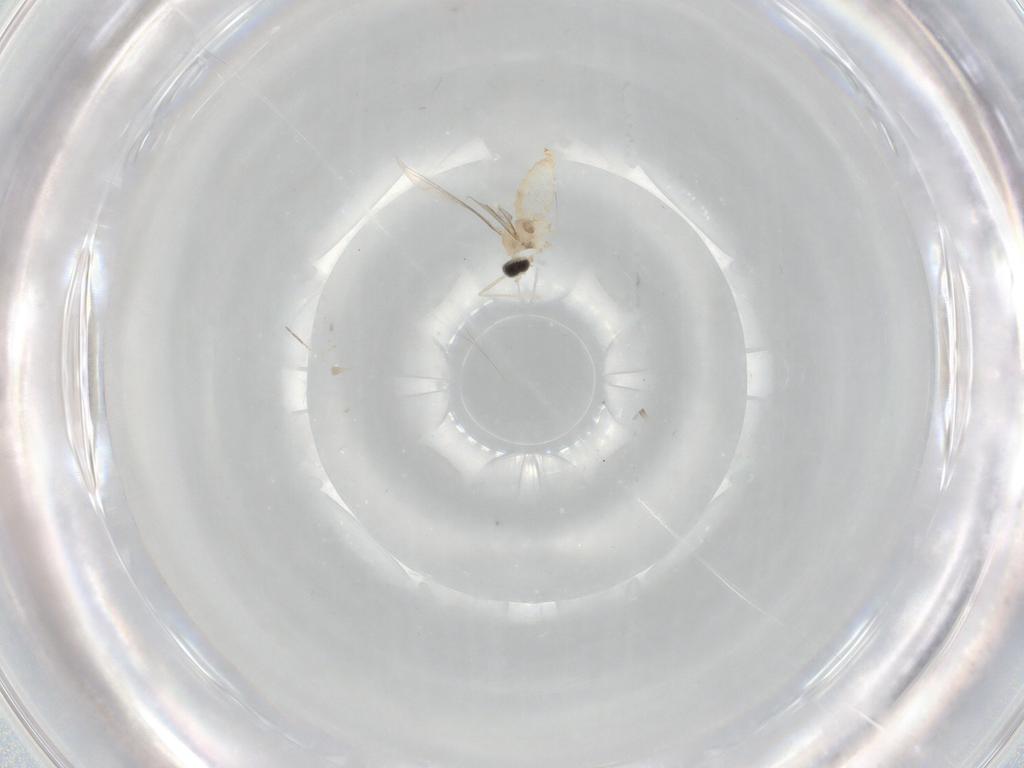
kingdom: Animalia
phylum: Arthropoda
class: Insecta
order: Diptera
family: Cecidomyiidae
